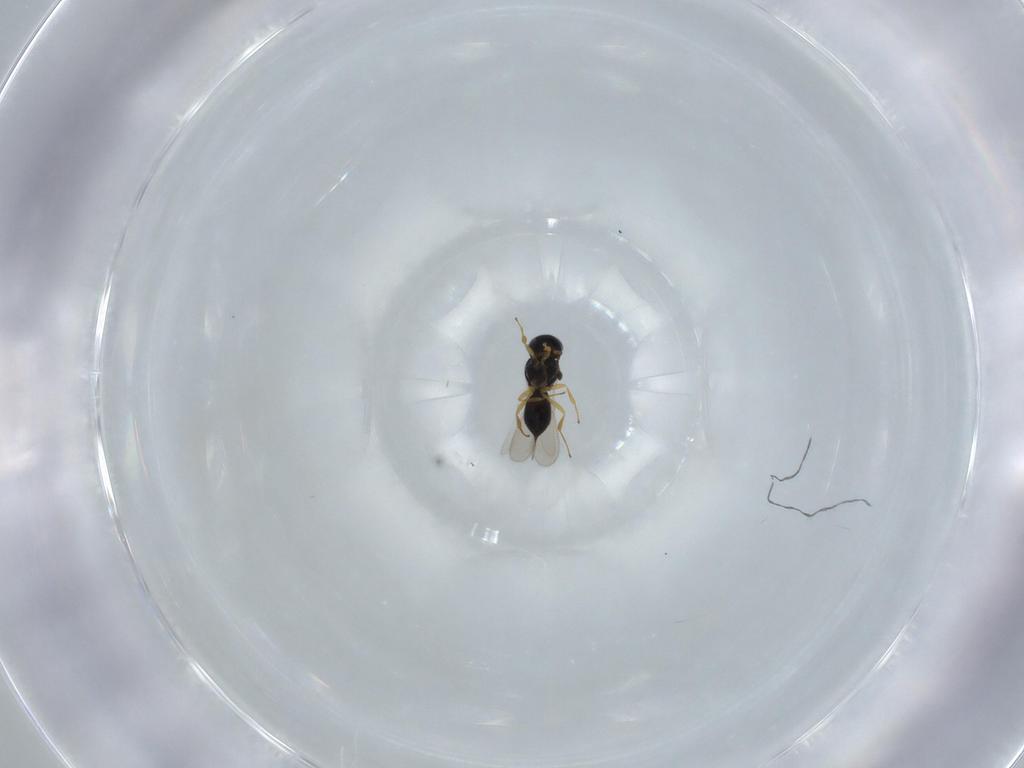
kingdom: Animalia
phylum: Arthropoda
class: Insecta
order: Hymenoptera
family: Scelionidae
